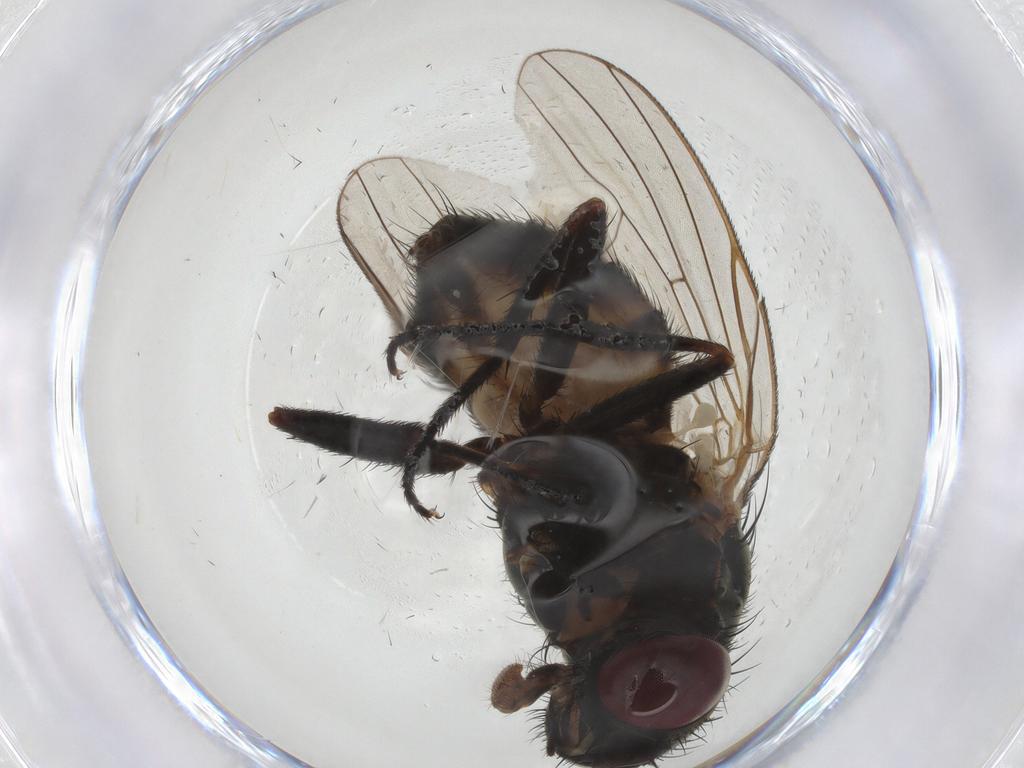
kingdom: Animalia
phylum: Arthropoda
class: Insecta
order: Diptera
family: Fanniidae
